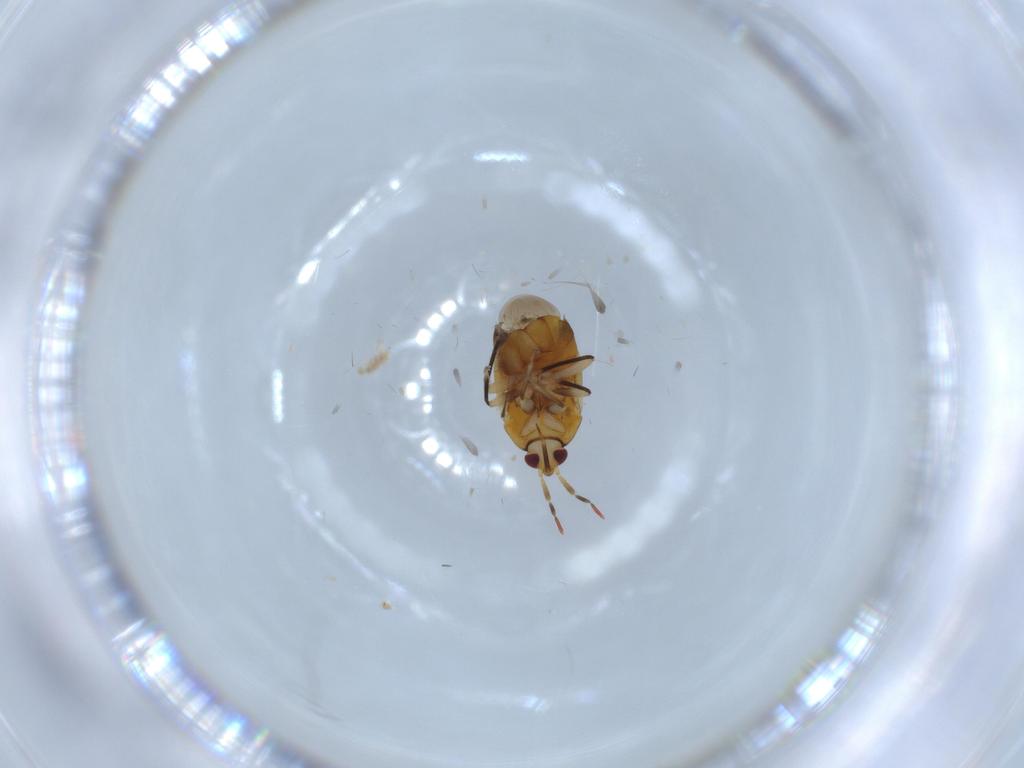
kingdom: Animalia
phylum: Arthropoda
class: Insecta
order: Hemiptera
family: Anthocoridae
